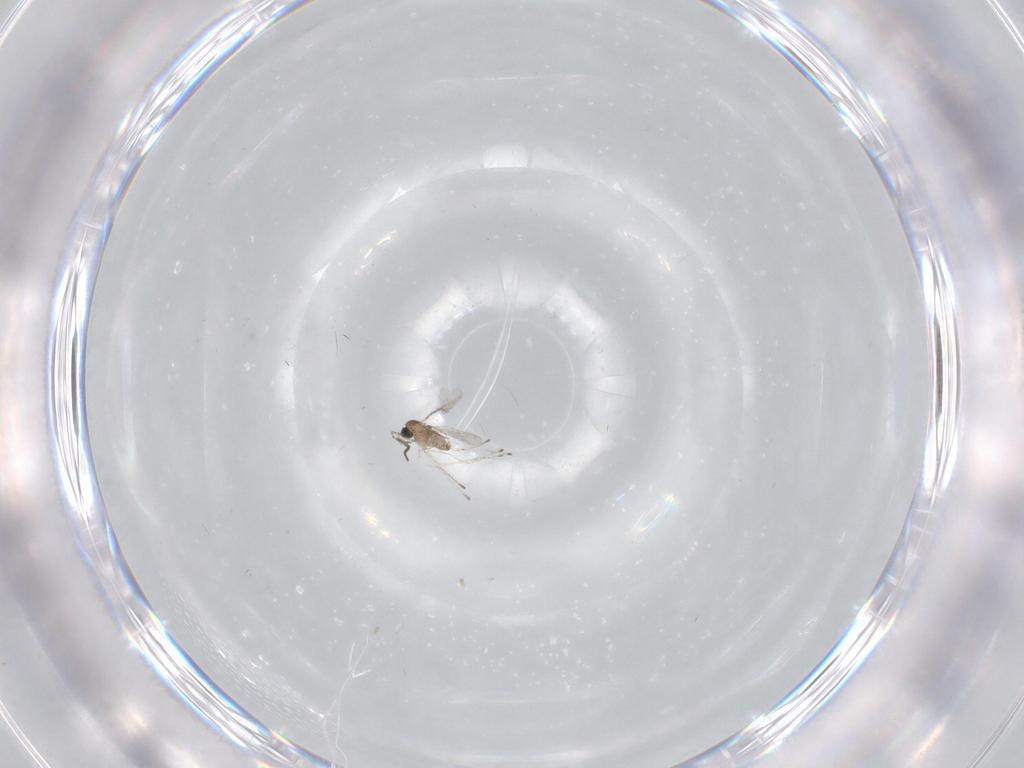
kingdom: Animalia
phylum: Arthropoda
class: Insecta
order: Diptera
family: Cecidomyiidae
